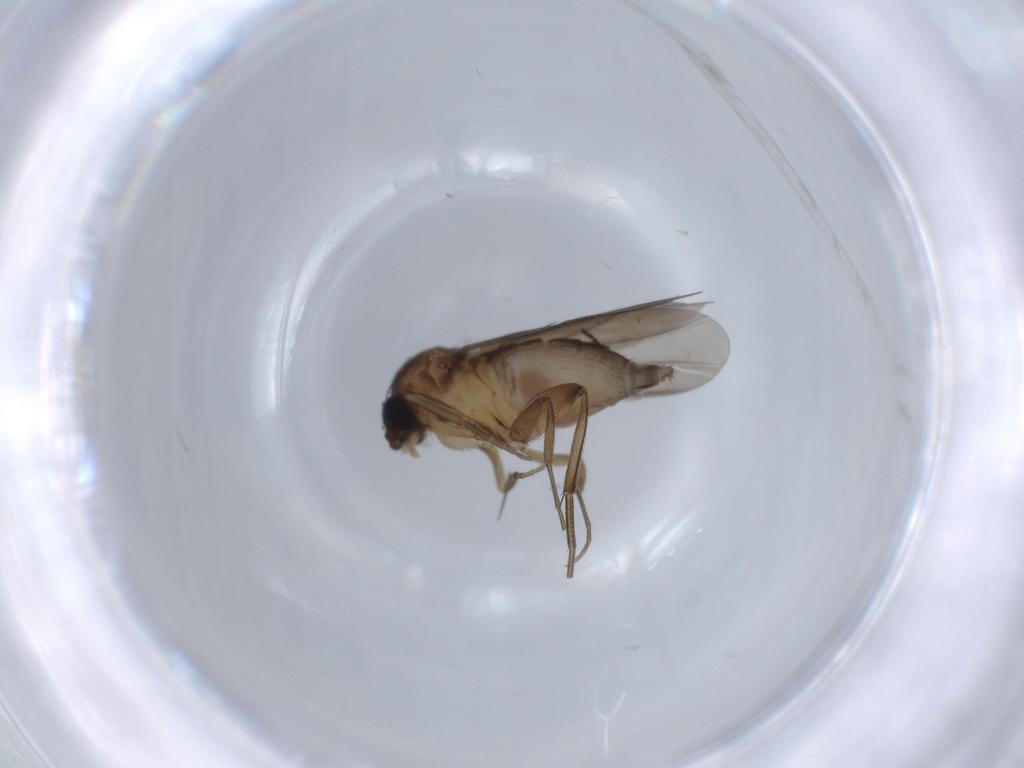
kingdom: Animalia
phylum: Arthropoda
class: Insecta
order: Diptera
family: Phoridae
